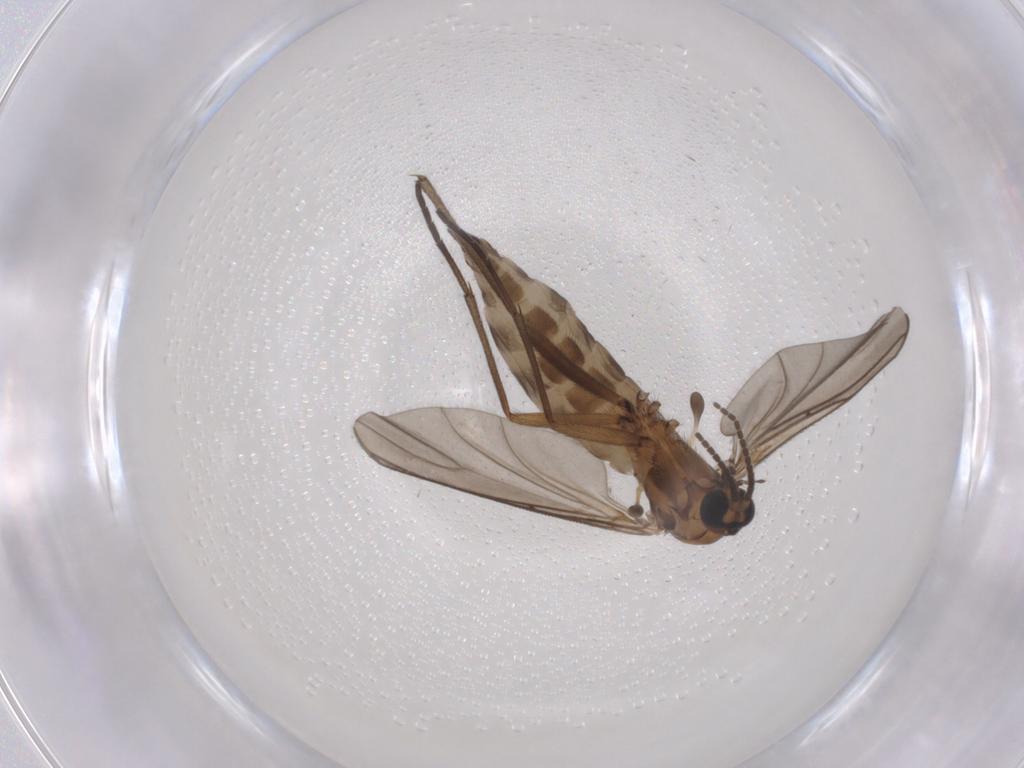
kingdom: Animalia
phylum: Arthropoda
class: Insecta
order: Diptera
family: Sciaridae
